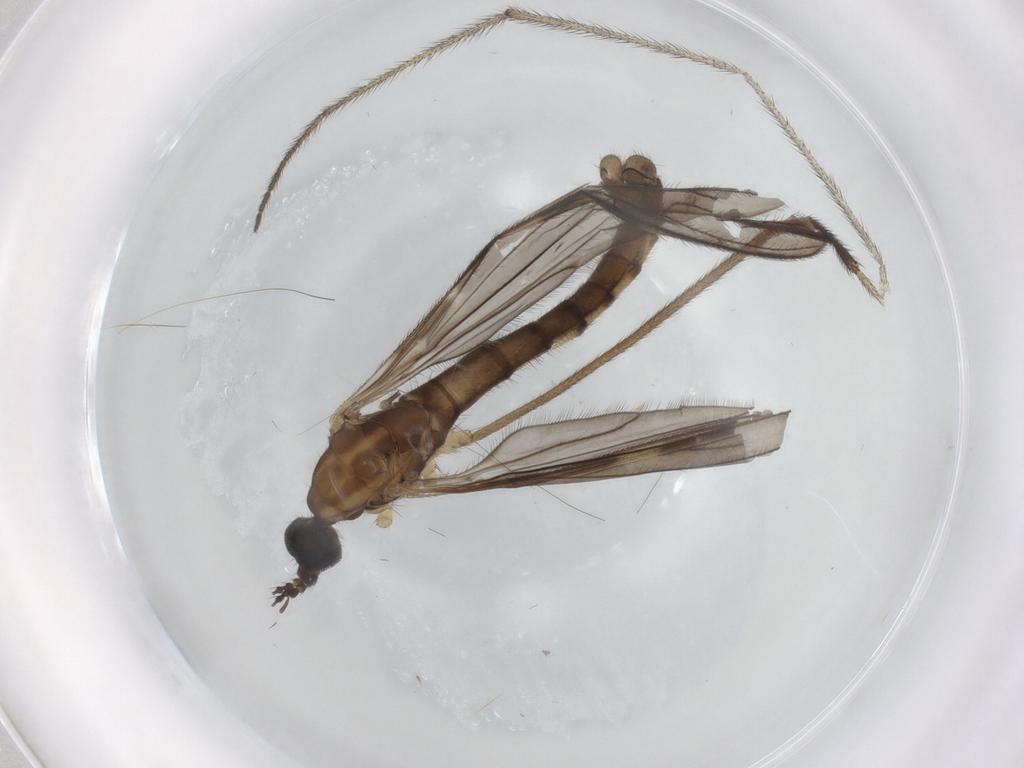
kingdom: Animalia
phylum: Arthropoda
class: Insecta
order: Diptera
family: Limoniidae
